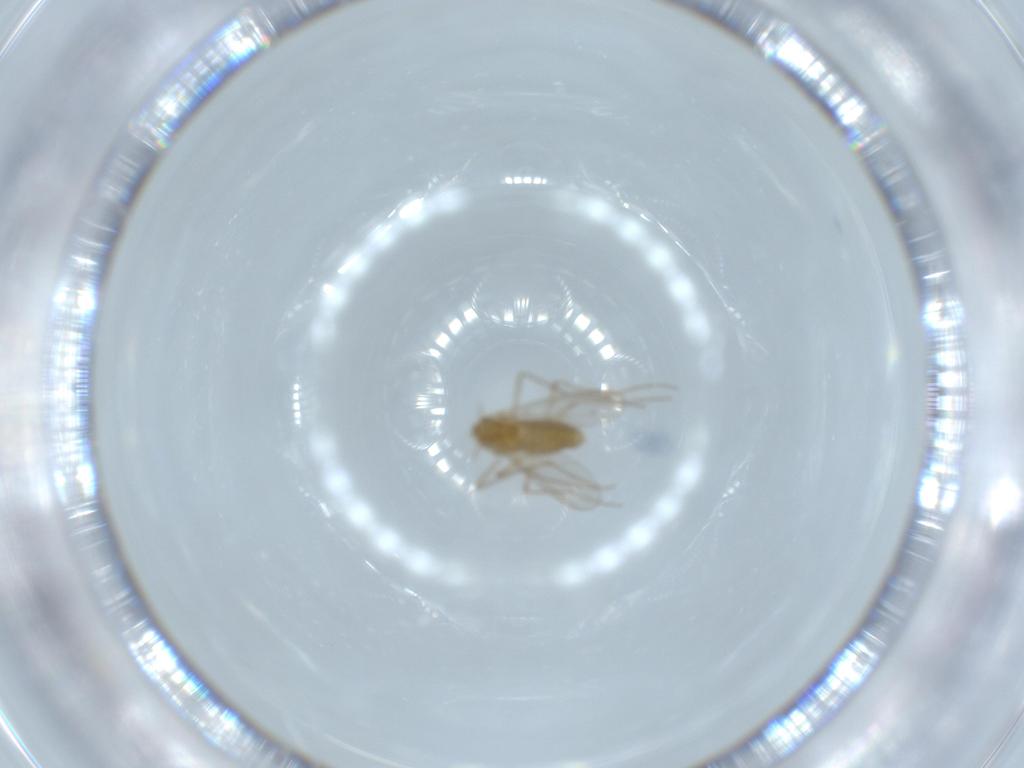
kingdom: Animalia
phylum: Arthropoda
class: Insecta
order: Diptera
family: Chironomidae
